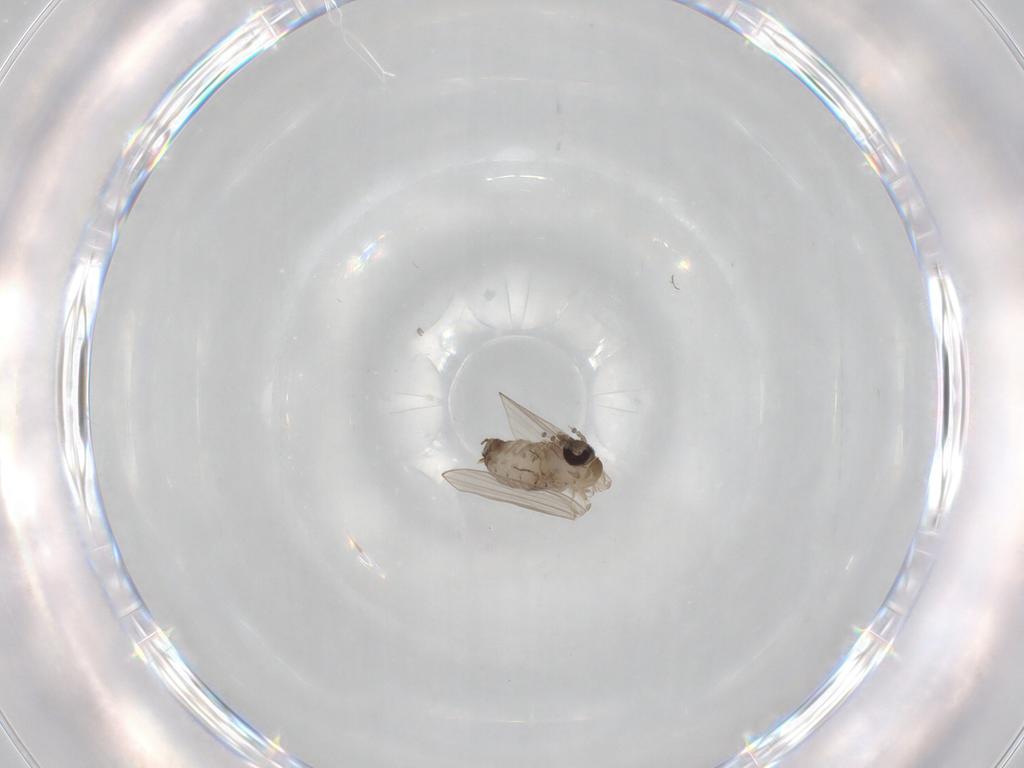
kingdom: Animalia
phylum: Arthropoda
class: Insecta
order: Diptera
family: Psychodidae
